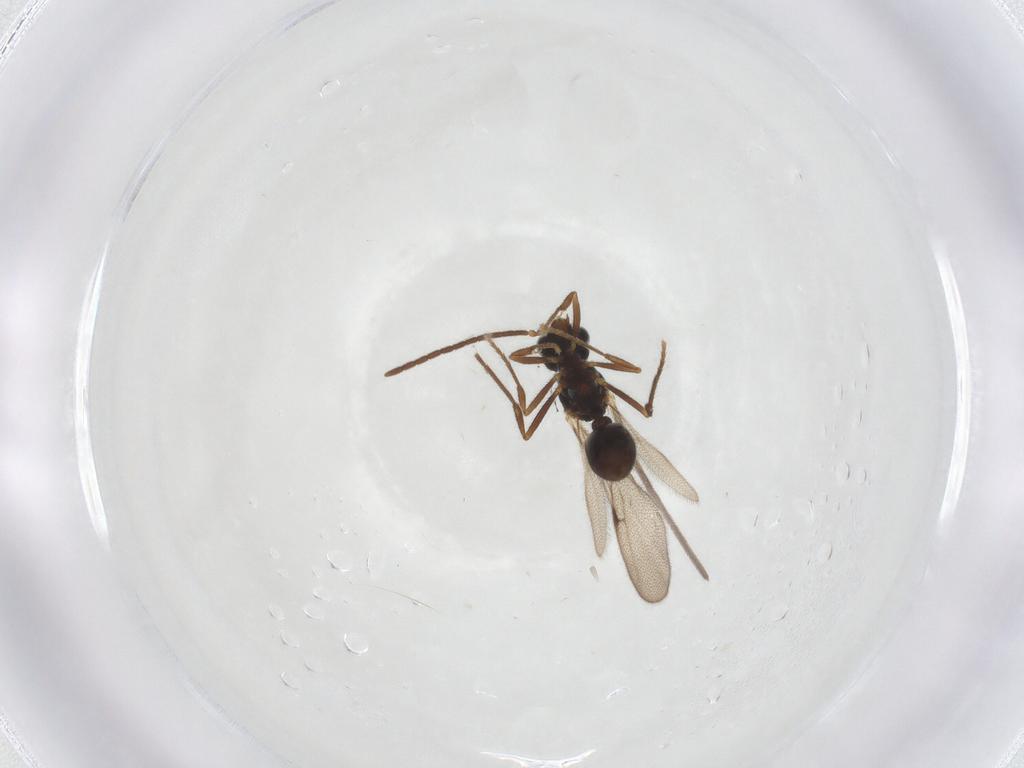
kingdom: Animalia
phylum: Arthropoda
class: Insecta
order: Hymenoptera
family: Formicidae
